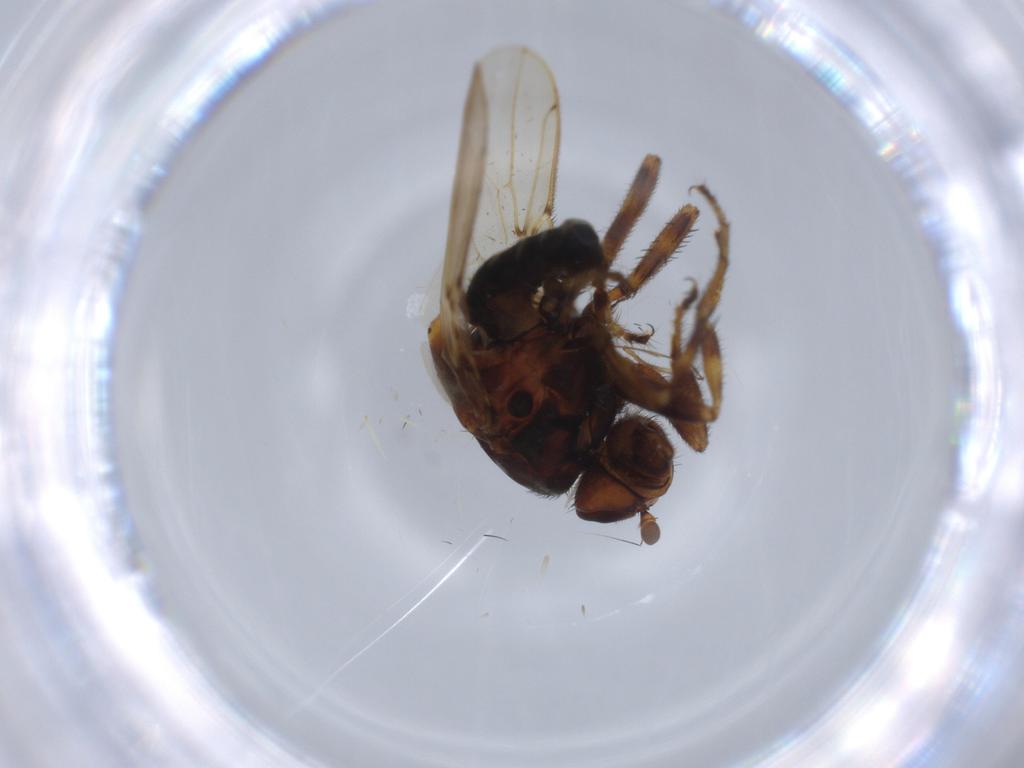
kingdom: Animalia
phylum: Arthropoda
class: Insecta
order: Diptera
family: Sphaeroceridae
